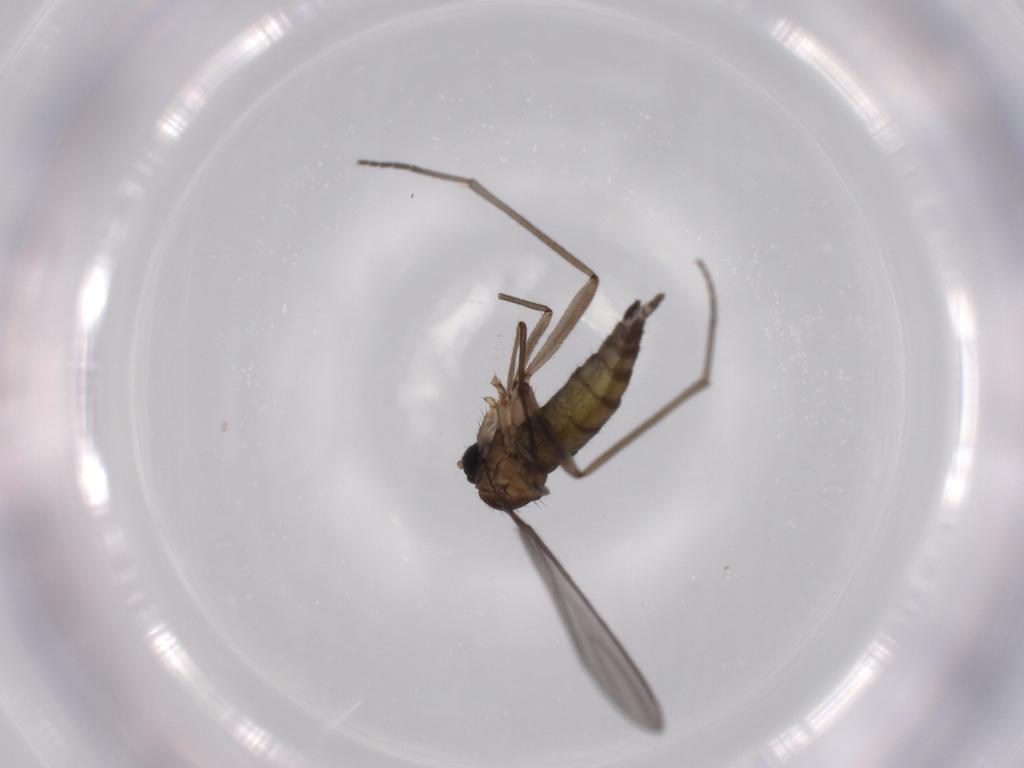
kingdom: Animalia
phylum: Arthropoda
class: Insecta
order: Diptera
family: Sciaridae
